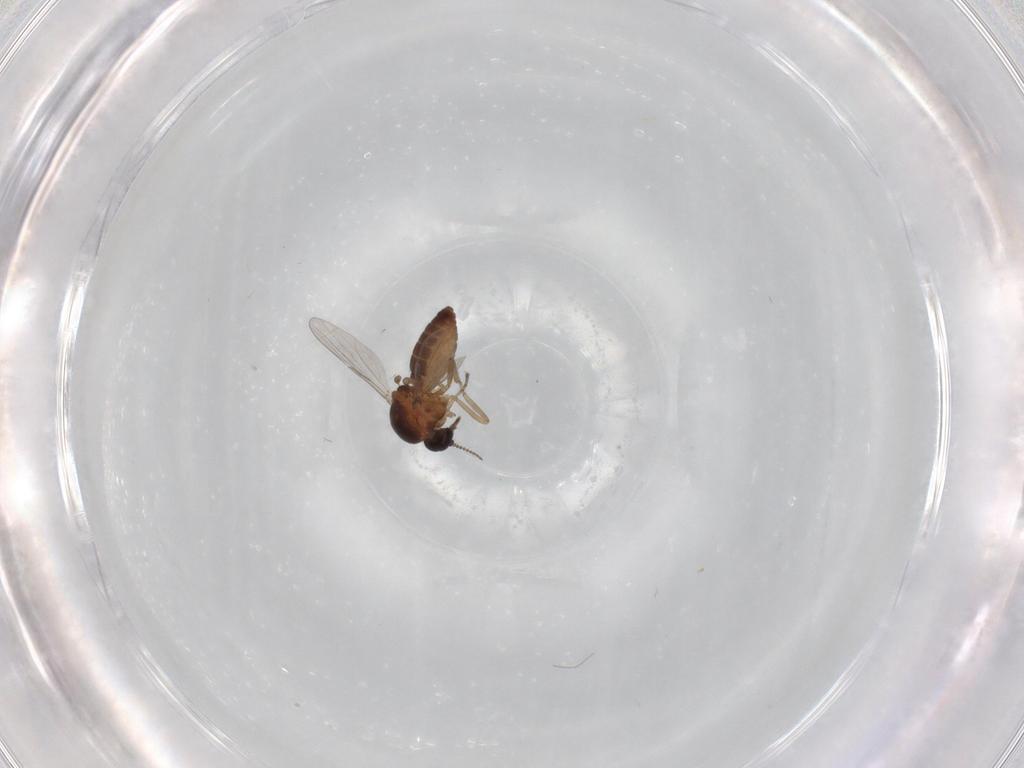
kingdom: Animalia
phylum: Arthropoda
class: Insecta
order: Diptera
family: Ceratopogonidae
